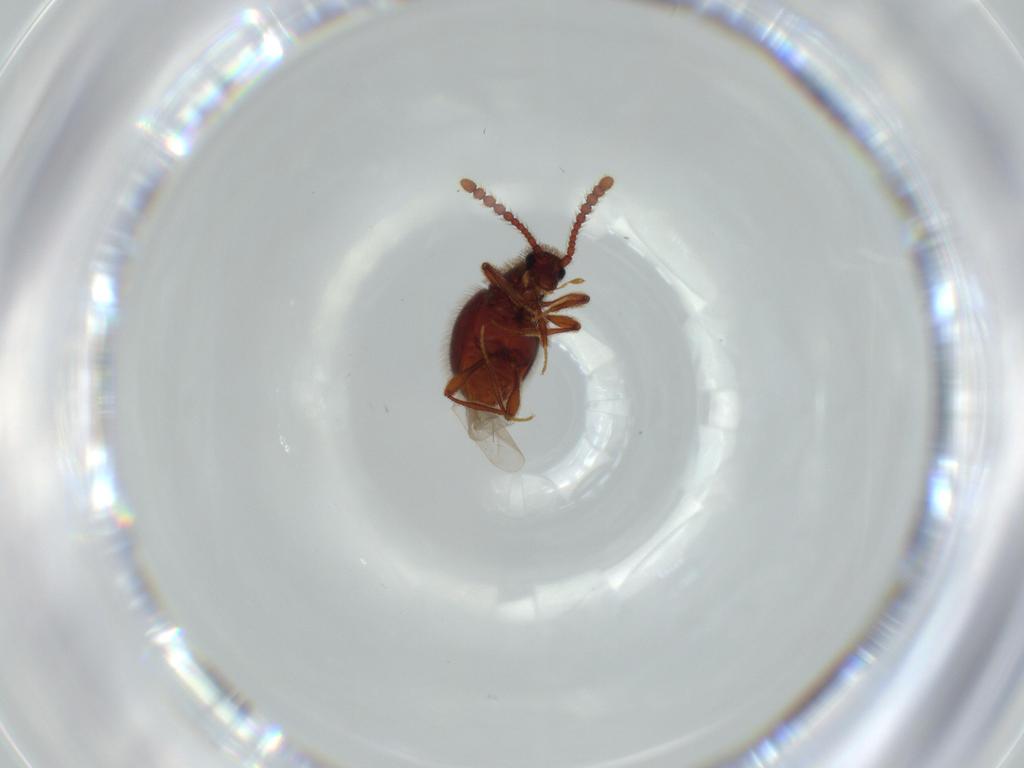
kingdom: Animalia
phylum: Arthropoda
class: Insecta
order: Coleoptera
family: Staphylinidae
